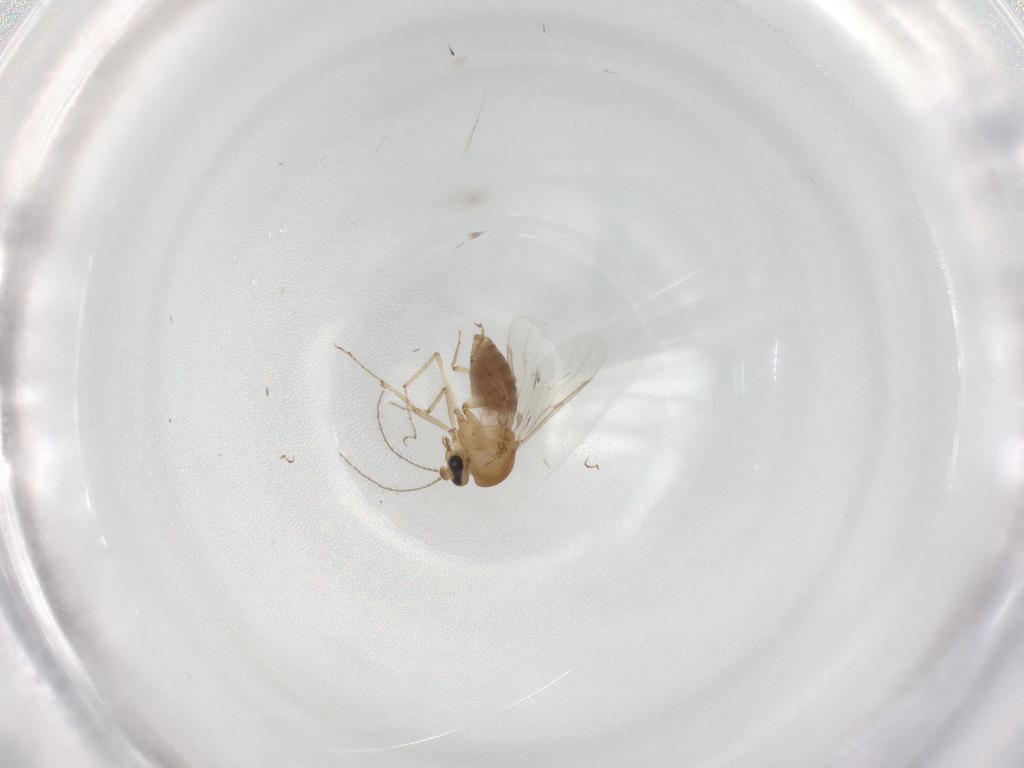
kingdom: Animalia
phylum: Arthropoda
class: Insecta
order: Diptera
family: Ceratopogonidae
